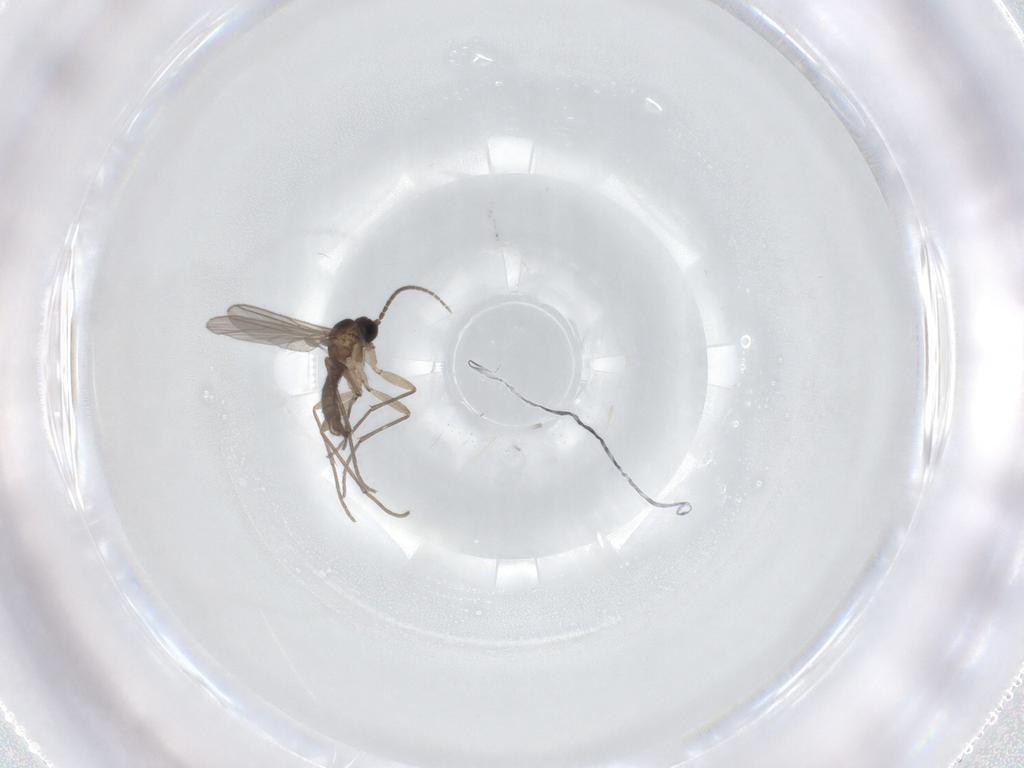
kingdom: Animalia
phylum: Arthropoda
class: Insecta
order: Diptera
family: Sciaridae
